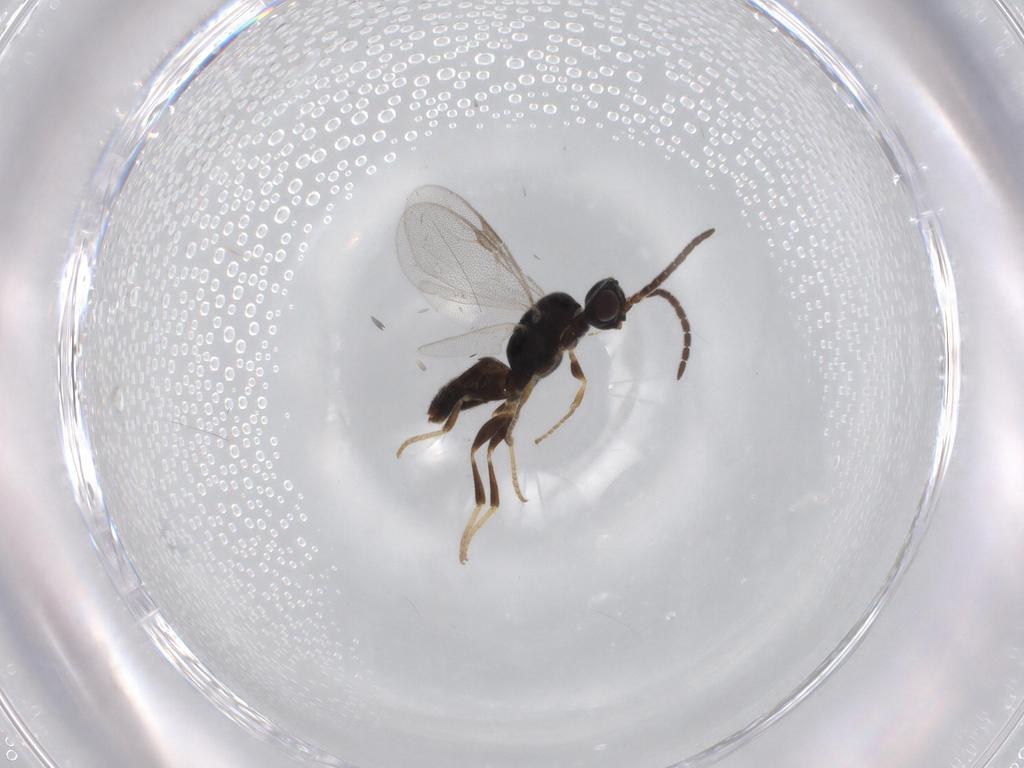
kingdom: Animalia
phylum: Arthropoda
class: Insecta
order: Hymenoptera
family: Dryinidae
